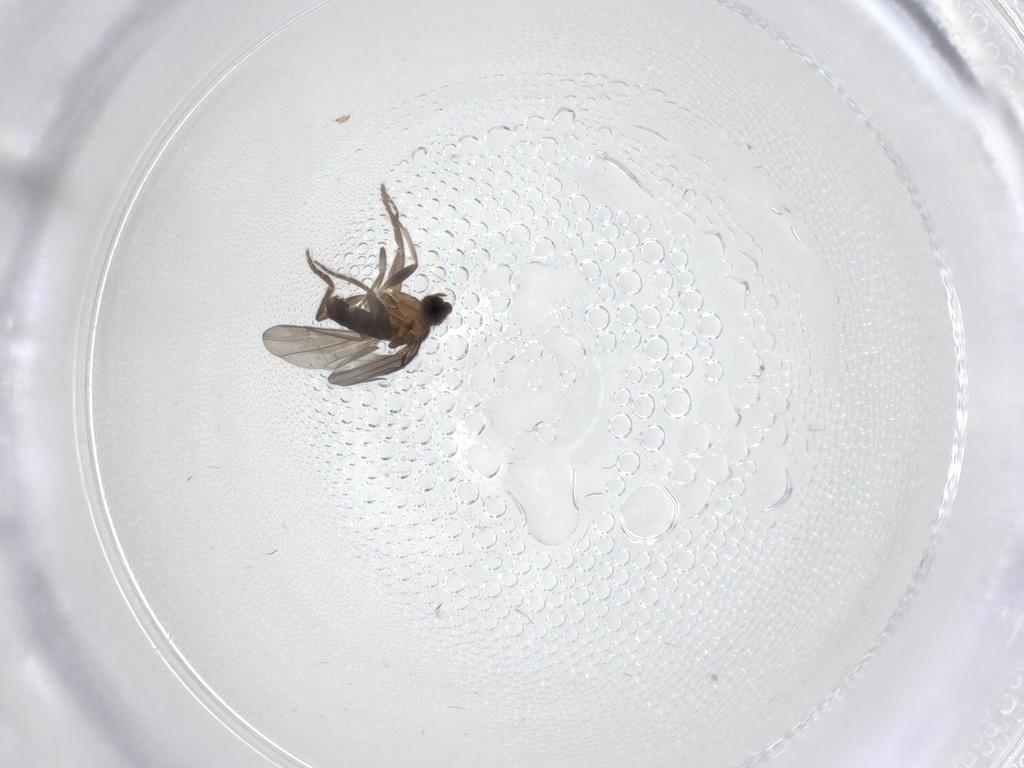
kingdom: Animalia
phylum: Arthropoda
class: Insecta
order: Diptera
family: Phoridae
